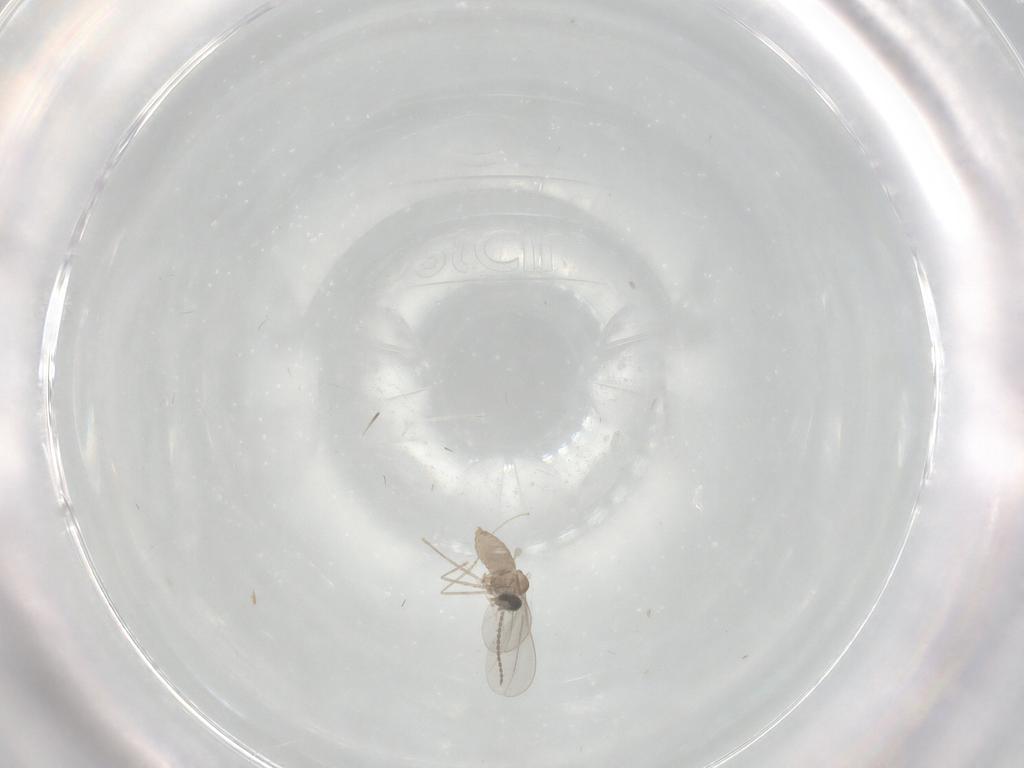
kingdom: Animalia
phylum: Arthropoda
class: Insecta
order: Diptera
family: Cecidomyiidae
